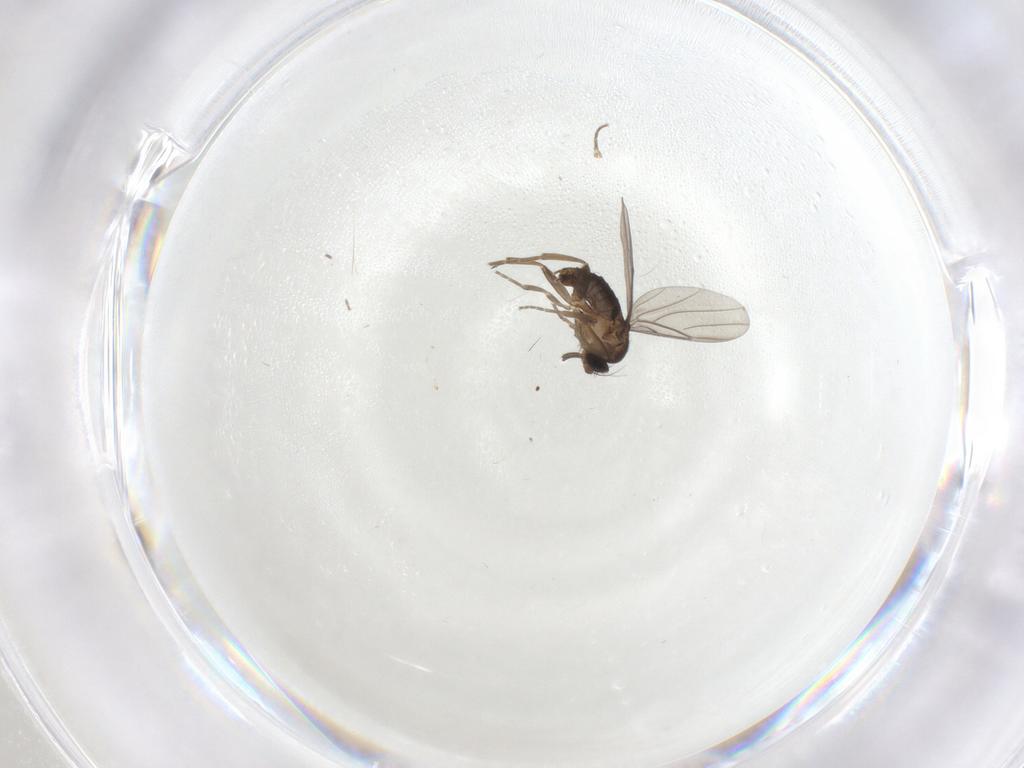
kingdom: Animalia
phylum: Arthropoda
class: Insecta
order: Diptera
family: Phoridae
